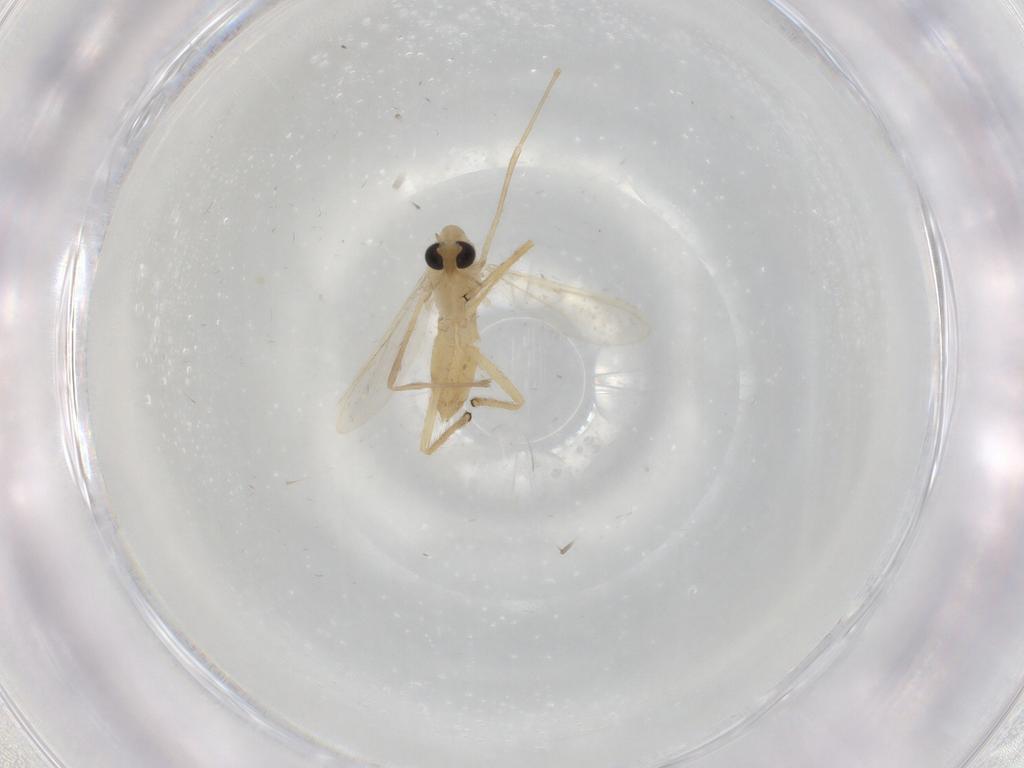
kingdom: Animalia
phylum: Arthropoda
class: Insecta
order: Diptera
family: Chironomidae
